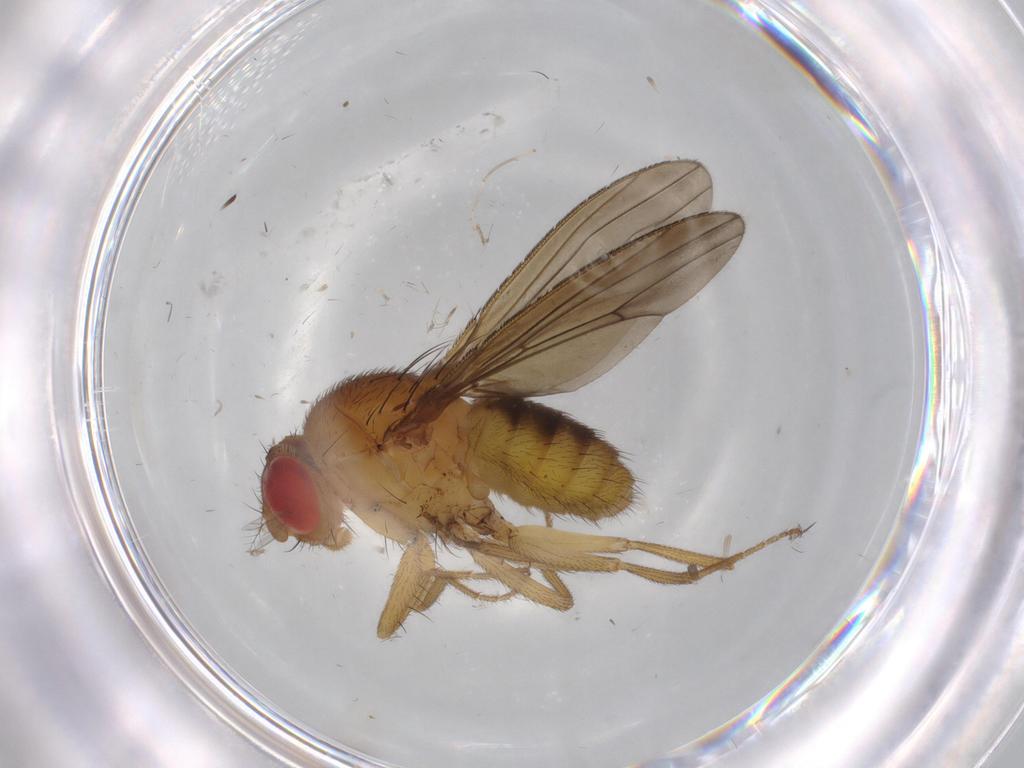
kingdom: Animalia
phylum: Arthropoda
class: Insecta
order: Diptera
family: Drosophilidae
